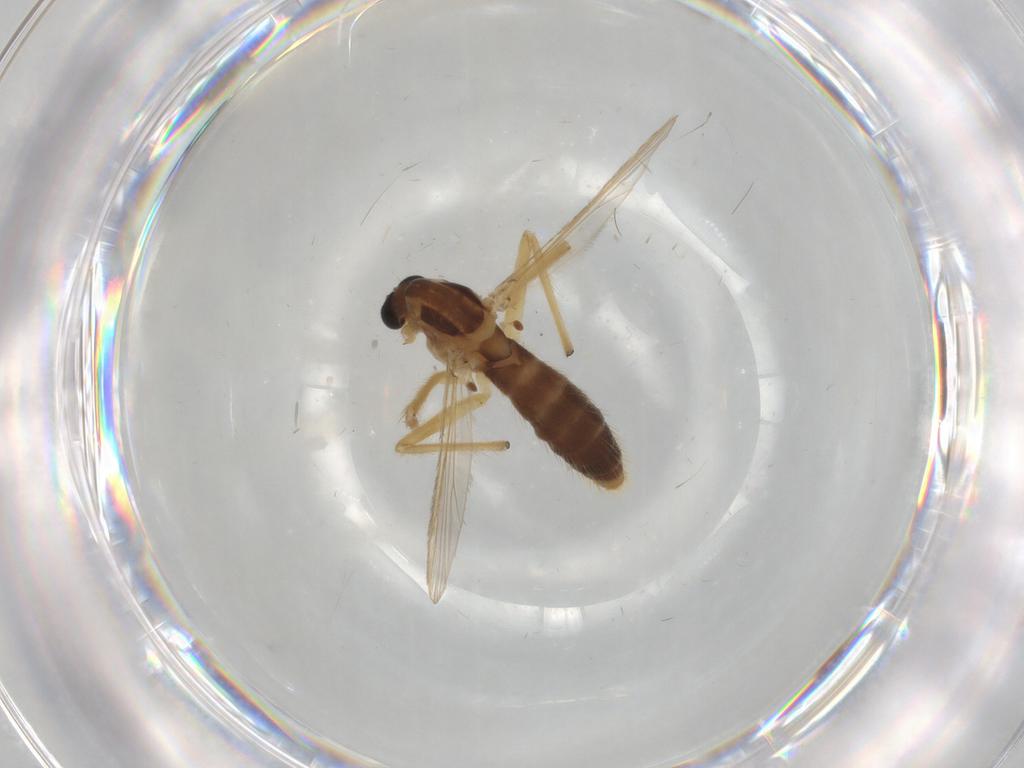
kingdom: Animalia
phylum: Arthropoda
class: Insecta
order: Diptera
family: Chironomidae
